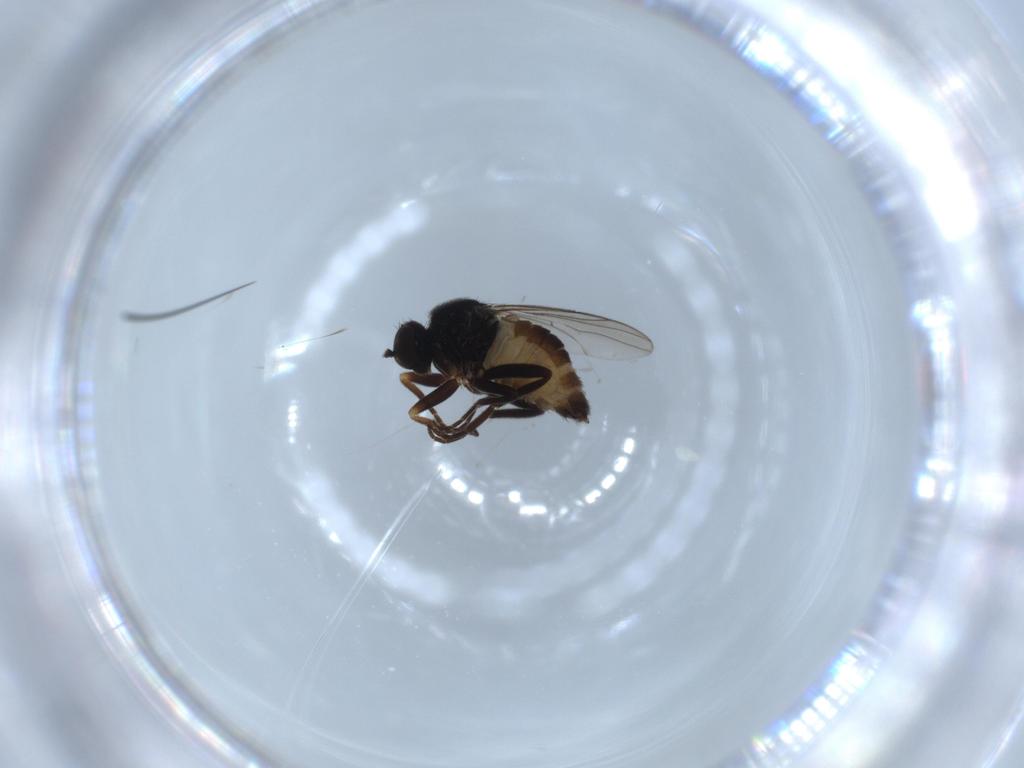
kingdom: Animalia
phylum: Arthropoda
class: Insecta
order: Diptera
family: Hybotidae
